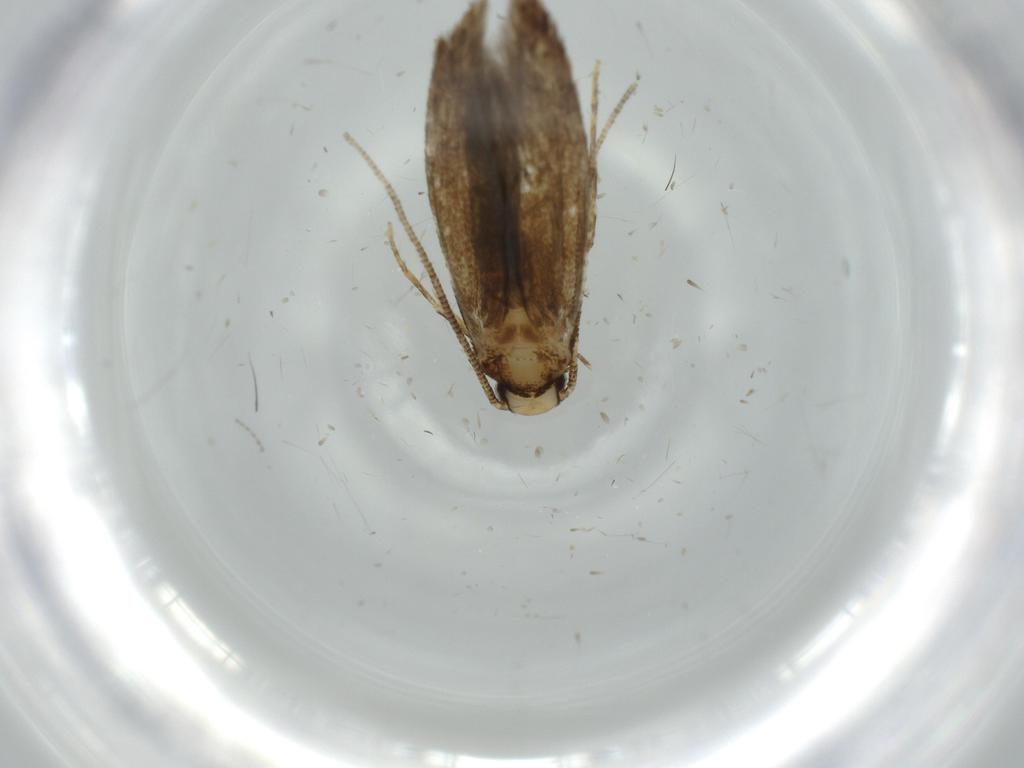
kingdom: Animalia
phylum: Arthropoda
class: Insecta
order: Lepidoptera
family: Tineidae
